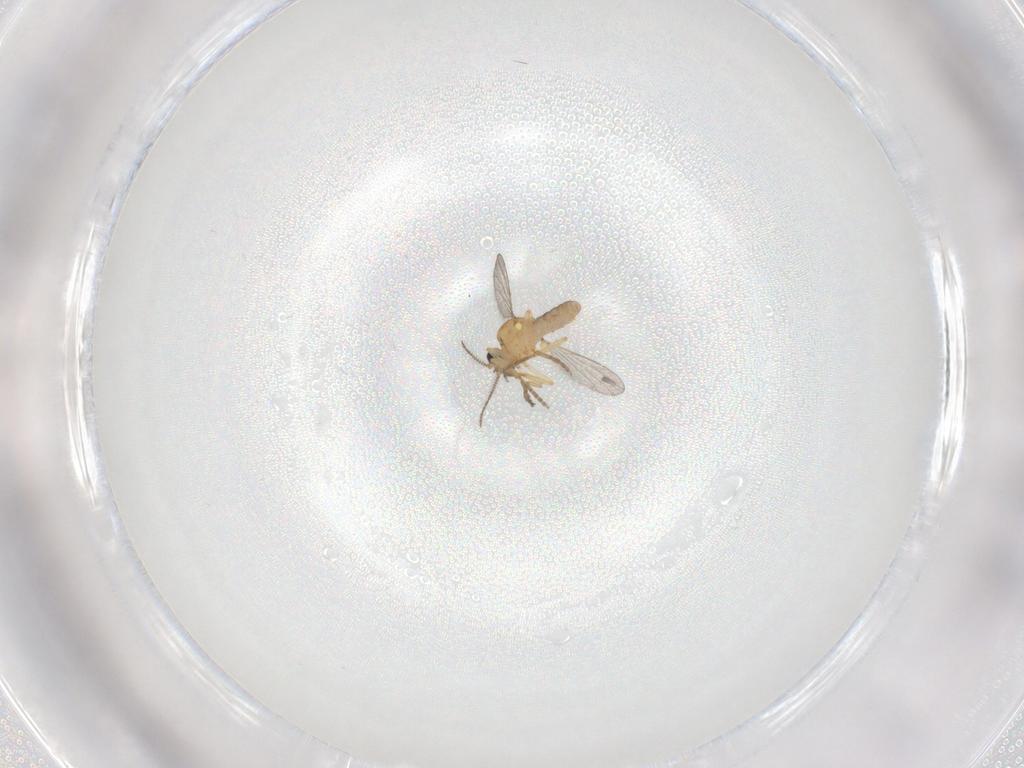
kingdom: Animalia
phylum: Arthropoda
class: Insecta
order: Diptera
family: Dolichopodidae
